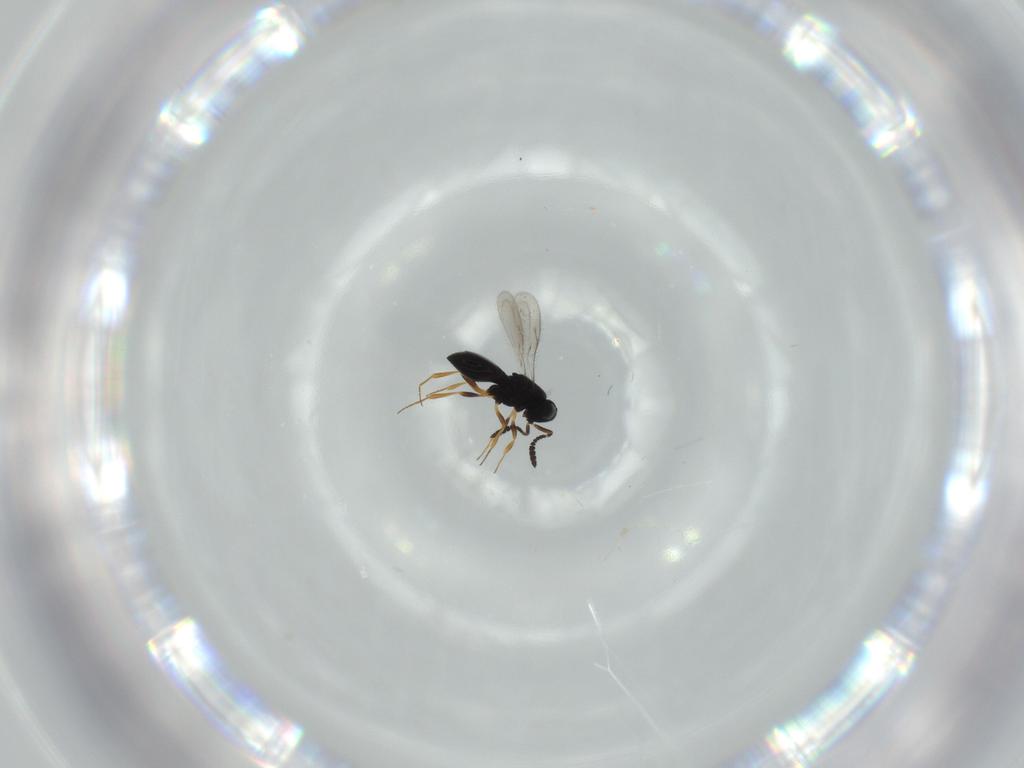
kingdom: Animalia
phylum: Arthropoda
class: Insecta
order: Hymenoptera
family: Scelionidae
